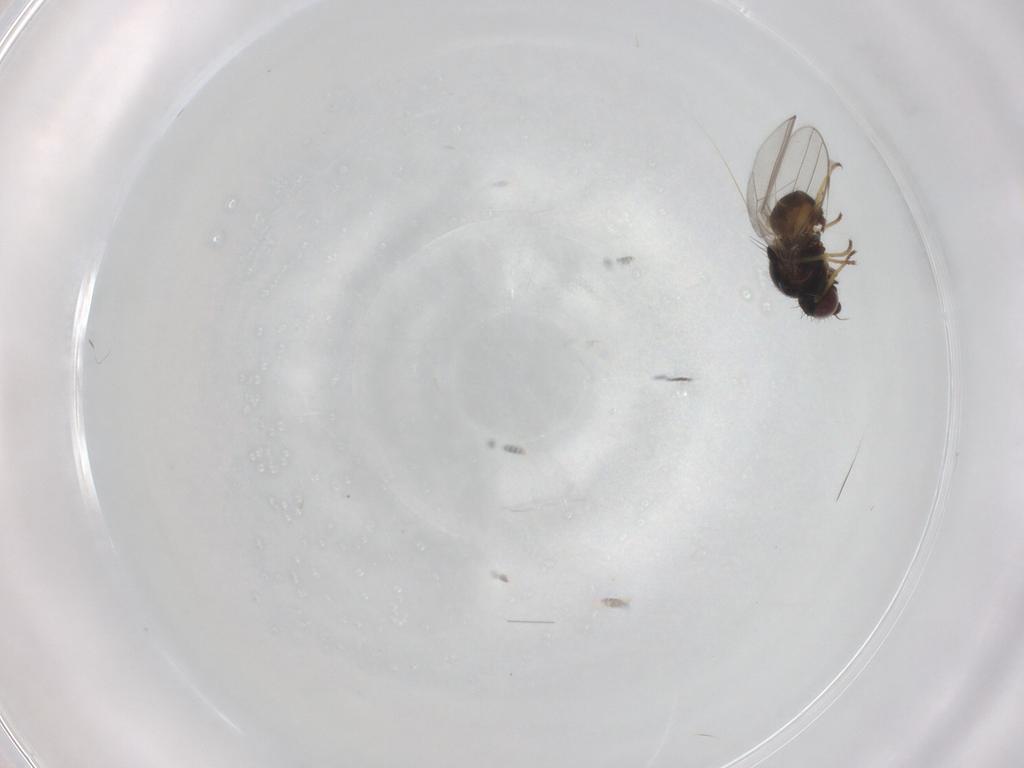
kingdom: Animalia
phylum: Arthropoda
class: Insecta
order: Diptera
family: Chloropidae
